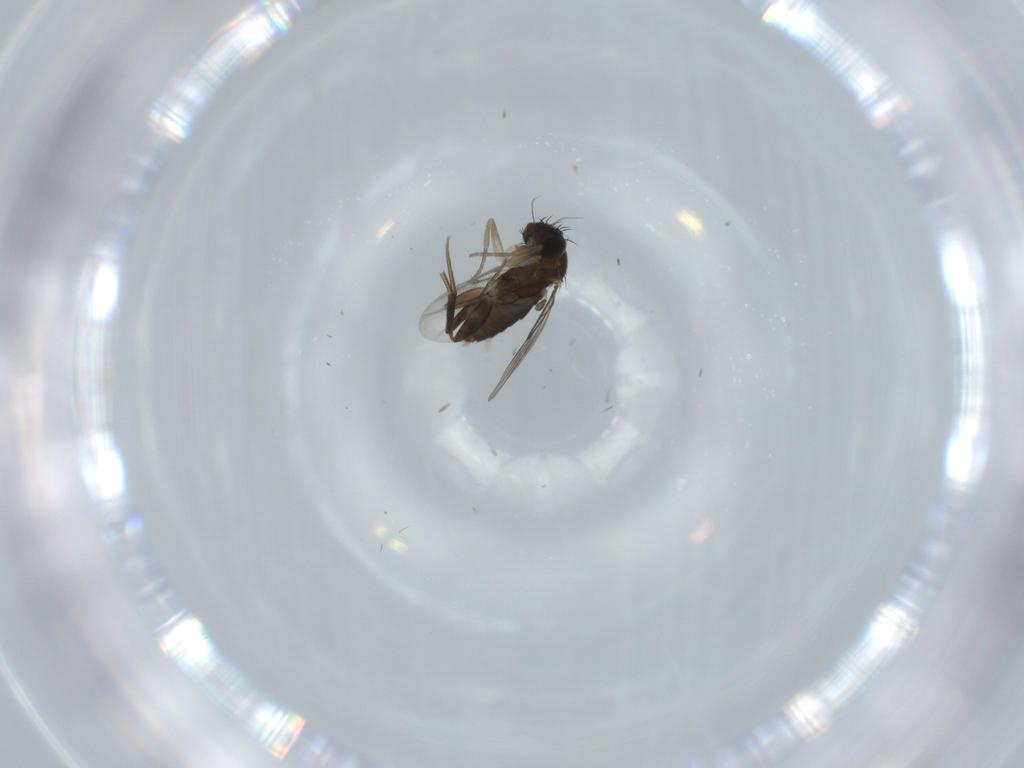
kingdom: Animalia
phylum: Arthropoda
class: Insecta
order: Diptera
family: Phoridae
